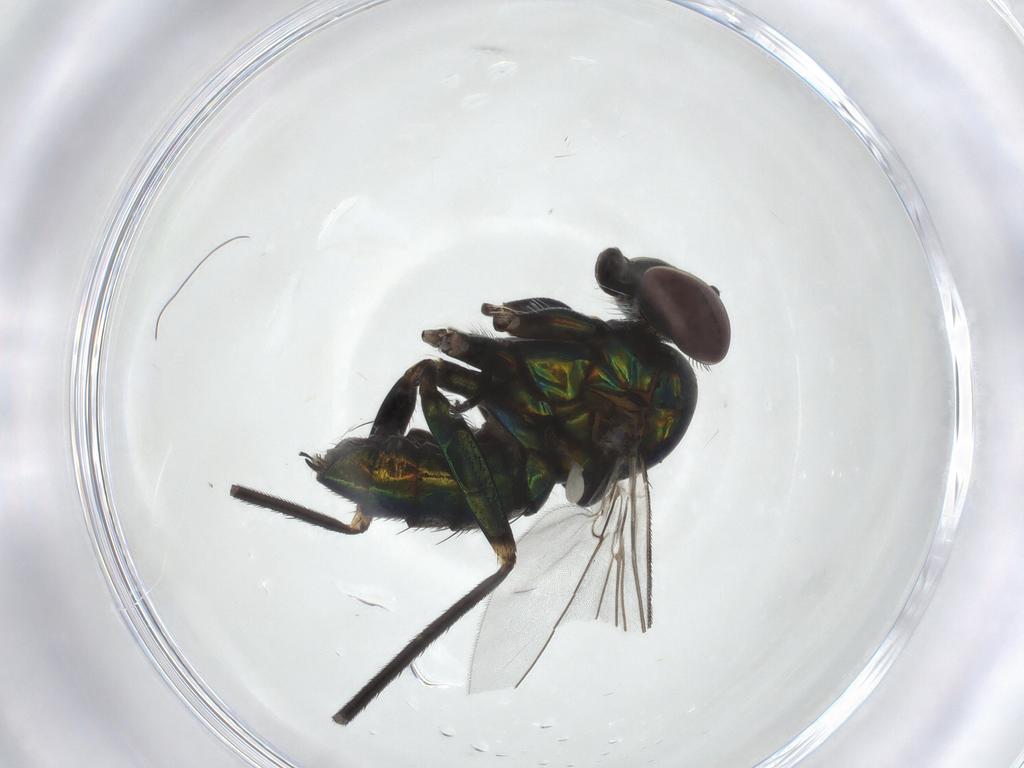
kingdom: Animalia
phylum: Arthropoda
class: Insecta
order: Diptera
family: Dolichopodidae
